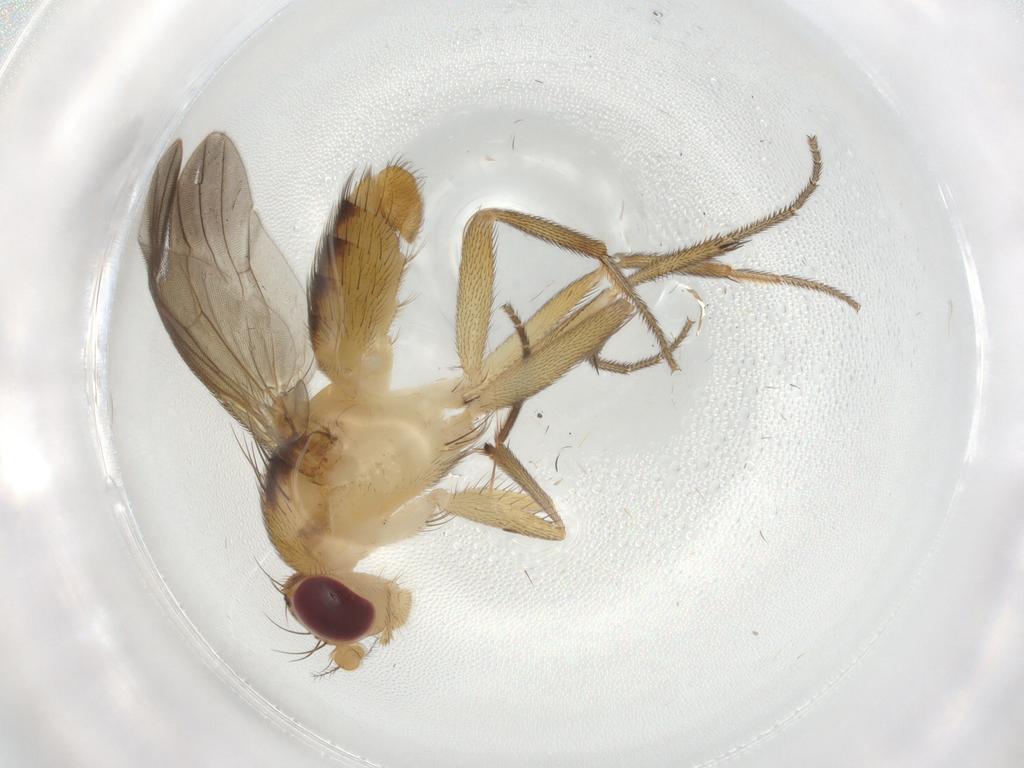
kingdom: Animalia
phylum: Arthropoda
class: Insecta
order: Diptera
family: Clusiidae
